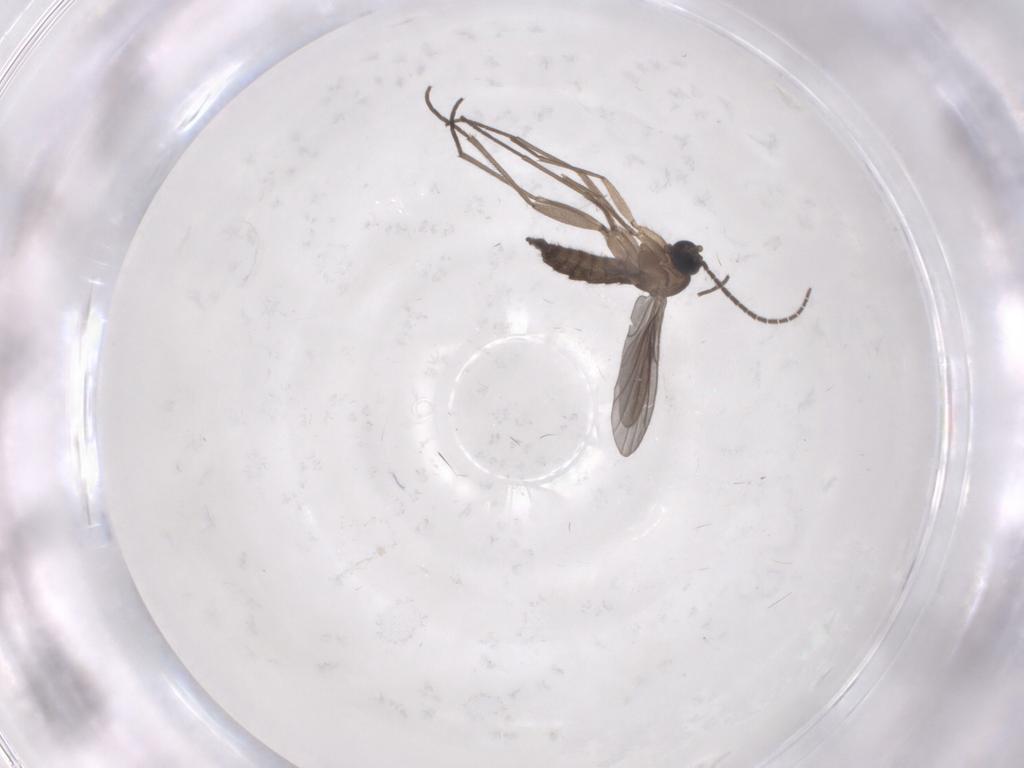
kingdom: Animalia
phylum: Arthropoda
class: Insecta
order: Diptera
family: Sciaridae
